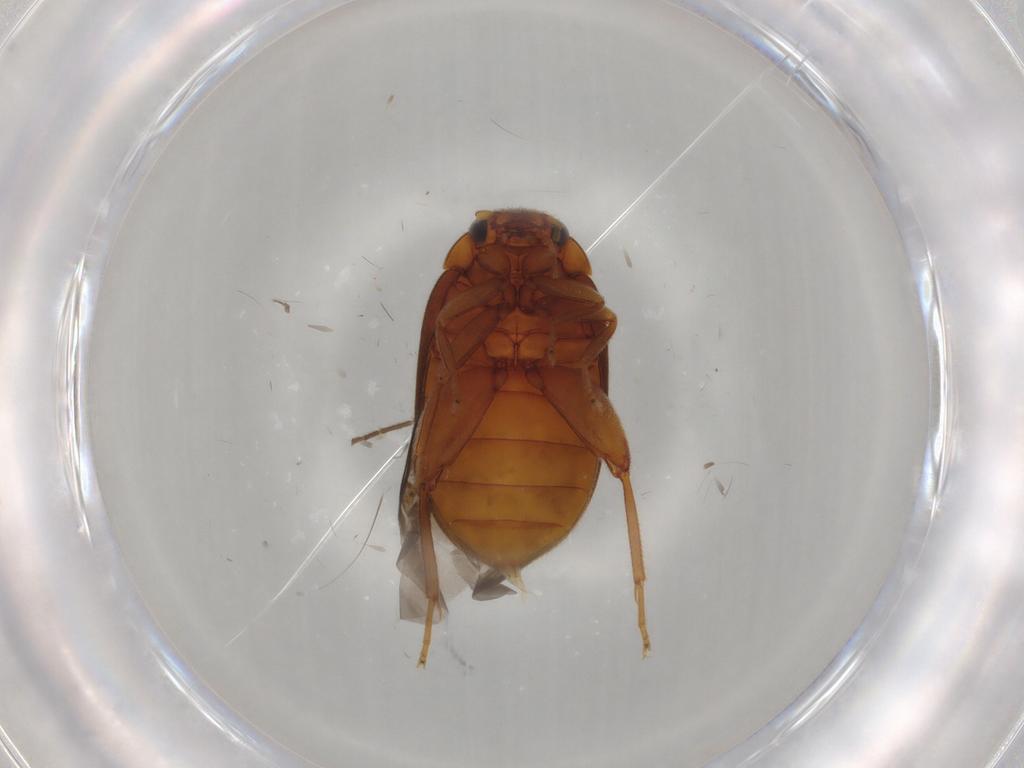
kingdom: Animalia
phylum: Arthropoda
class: Insecta
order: Coleoptera
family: Scirtidae
